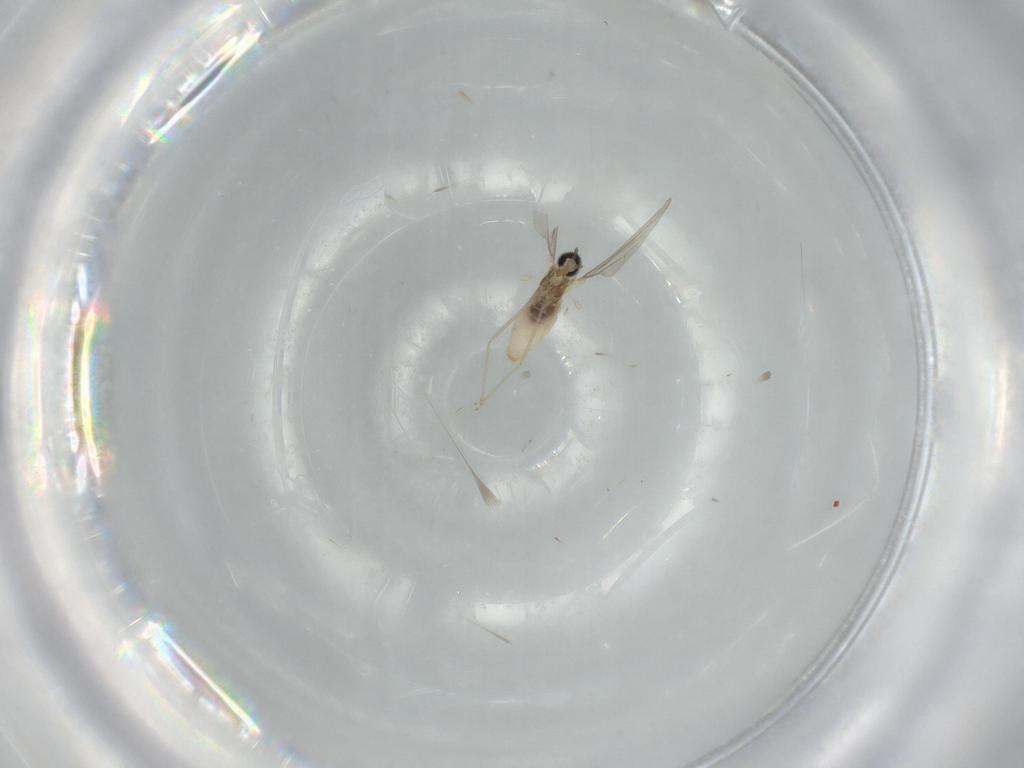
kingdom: Animalia
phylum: Arthropoda
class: Insecta
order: Diptera
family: Cecidomyiidae
